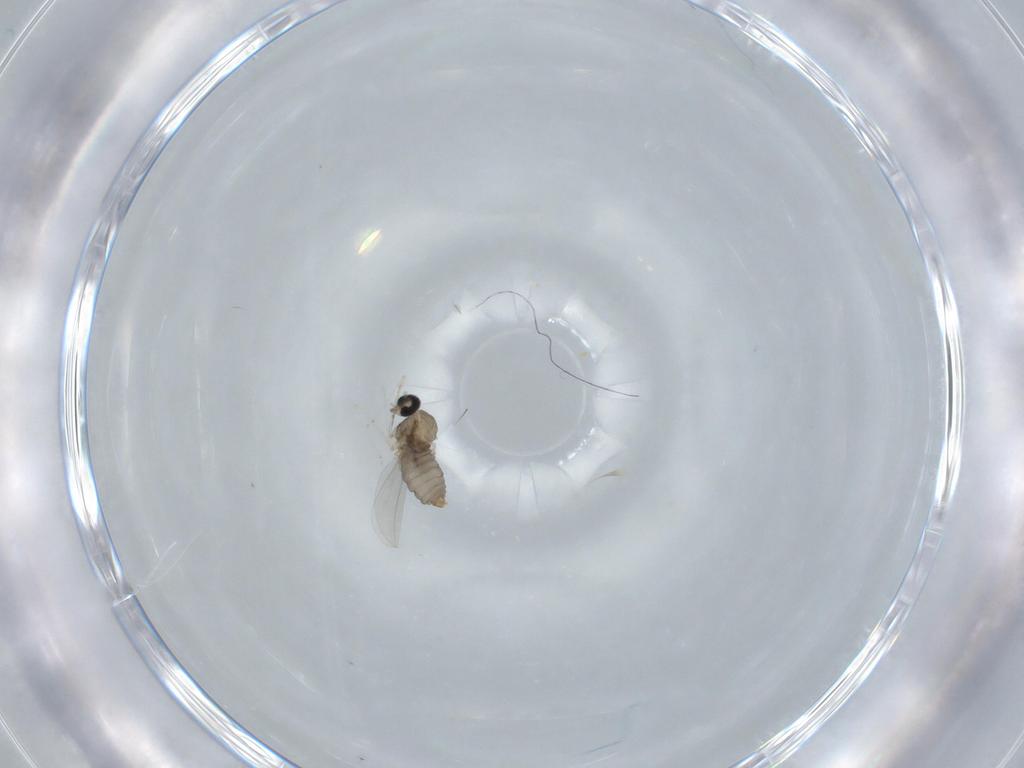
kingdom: Animalia
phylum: Arthropoda
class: Insecta
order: Diptera
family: Cecidomyiidae
